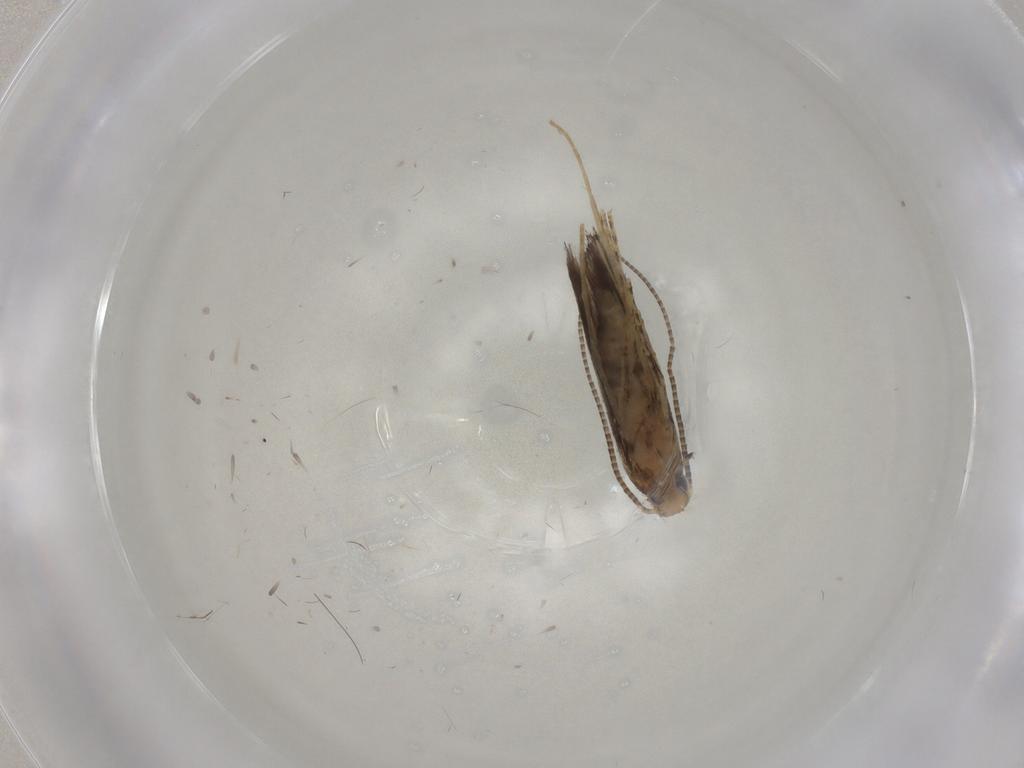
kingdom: Animalia
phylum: Arthropoda
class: Insecta
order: Lepidoptera
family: Gracillariidae
